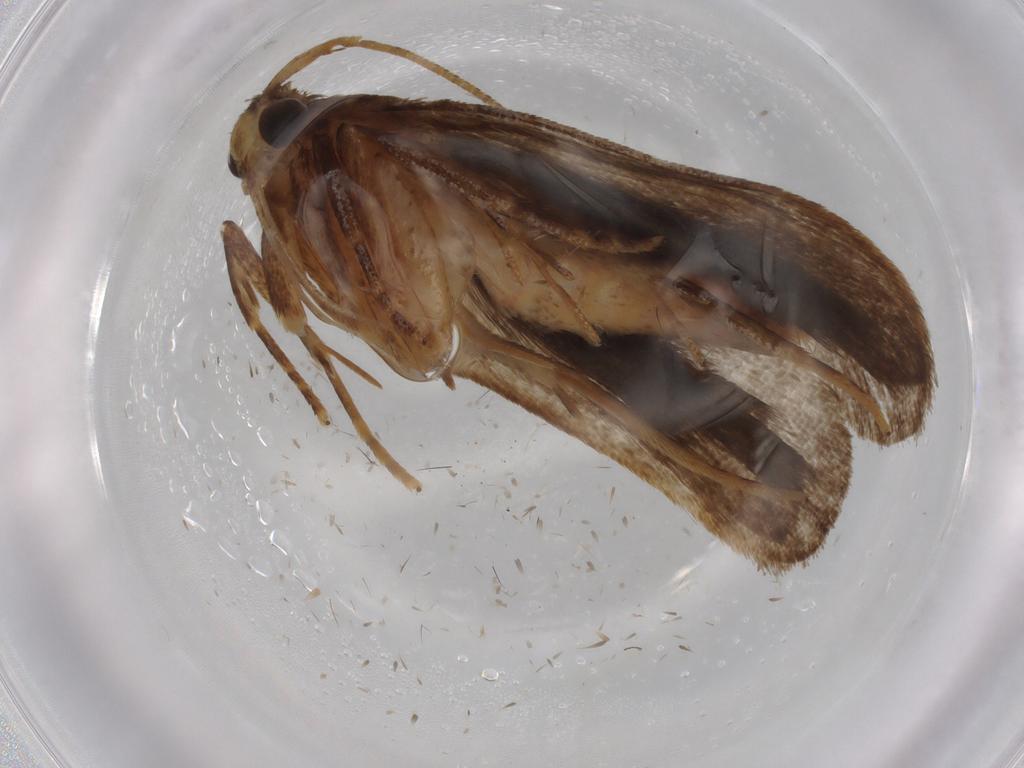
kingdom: Animalia
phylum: Arthropoda
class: Insecta
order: Lepidoptera
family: Autostichidae
